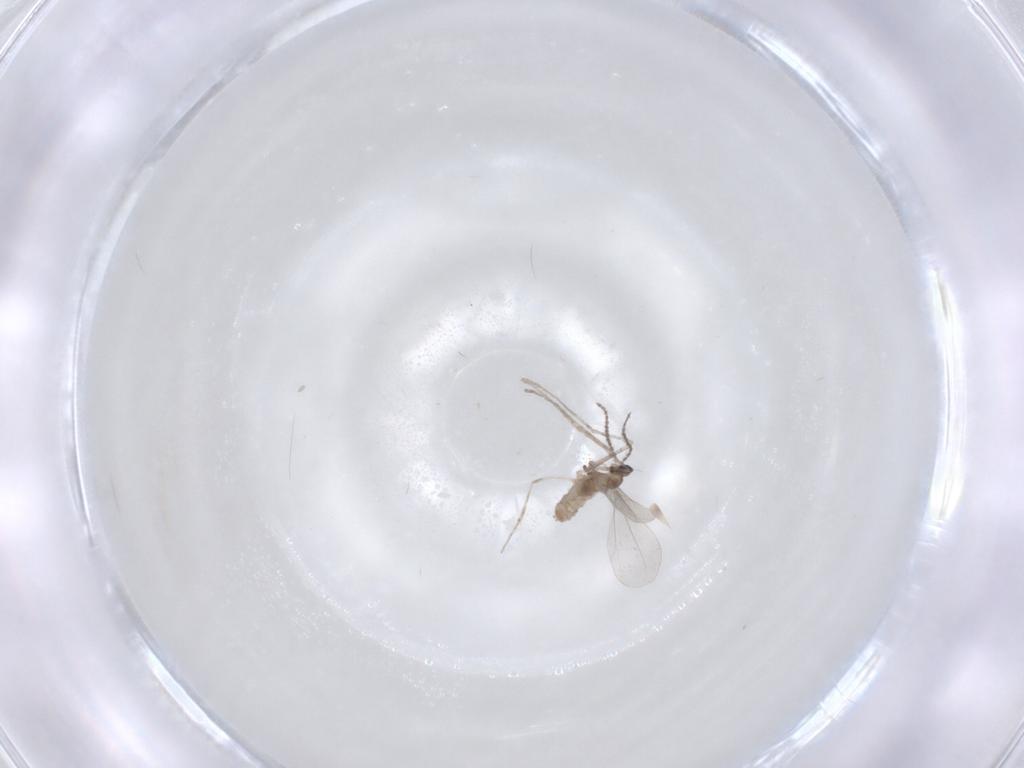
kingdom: Animalia
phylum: Arthropoda
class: Insecta
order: Diptera
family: Cecidomyiidae
